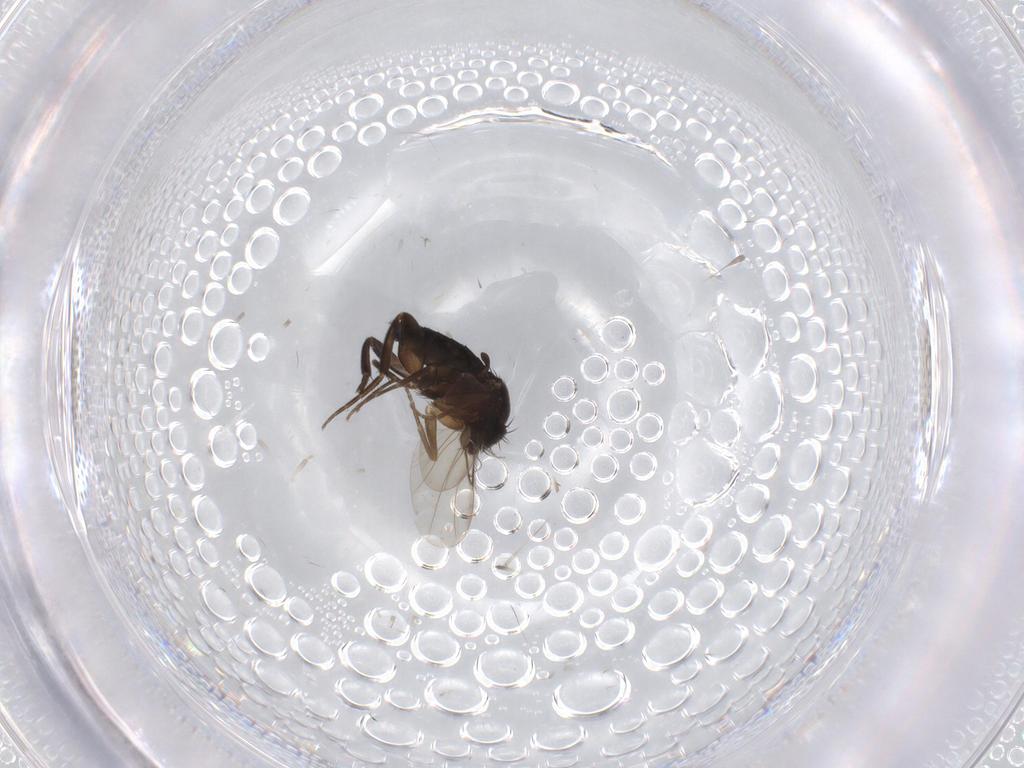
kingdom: Animalia
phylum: Arthropoda
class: Insecta
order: Diptera
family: Phoridae
